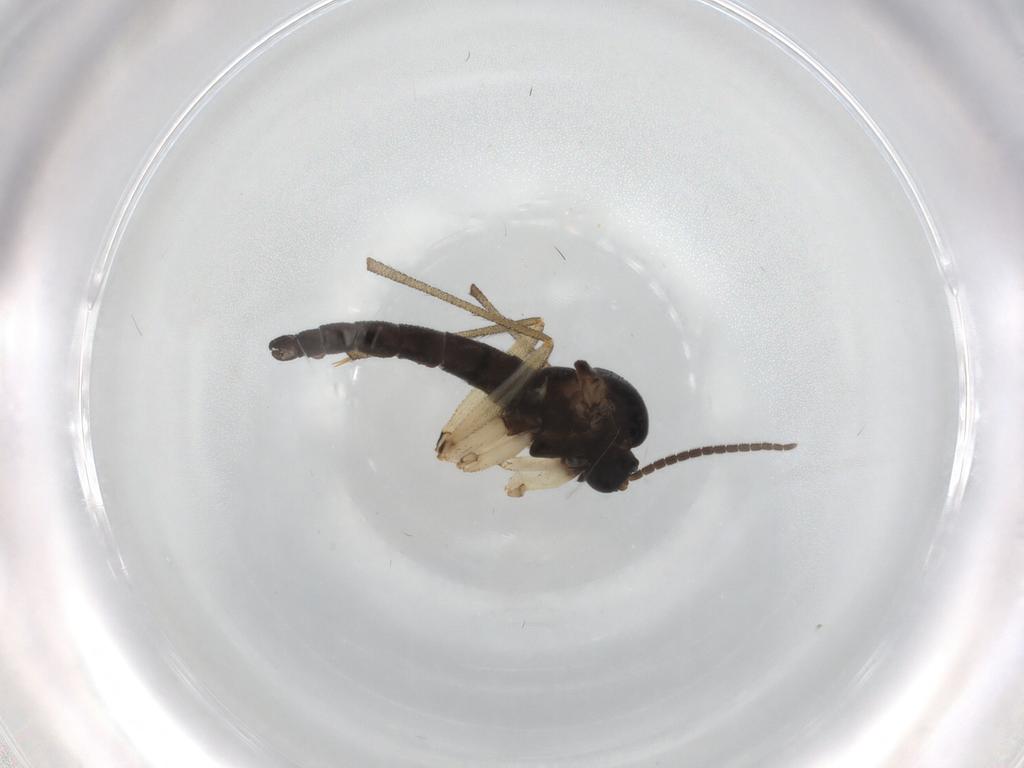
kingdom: Animalia
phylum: Arthropoda
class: Insecta
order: Diptera
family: Sciaridae
